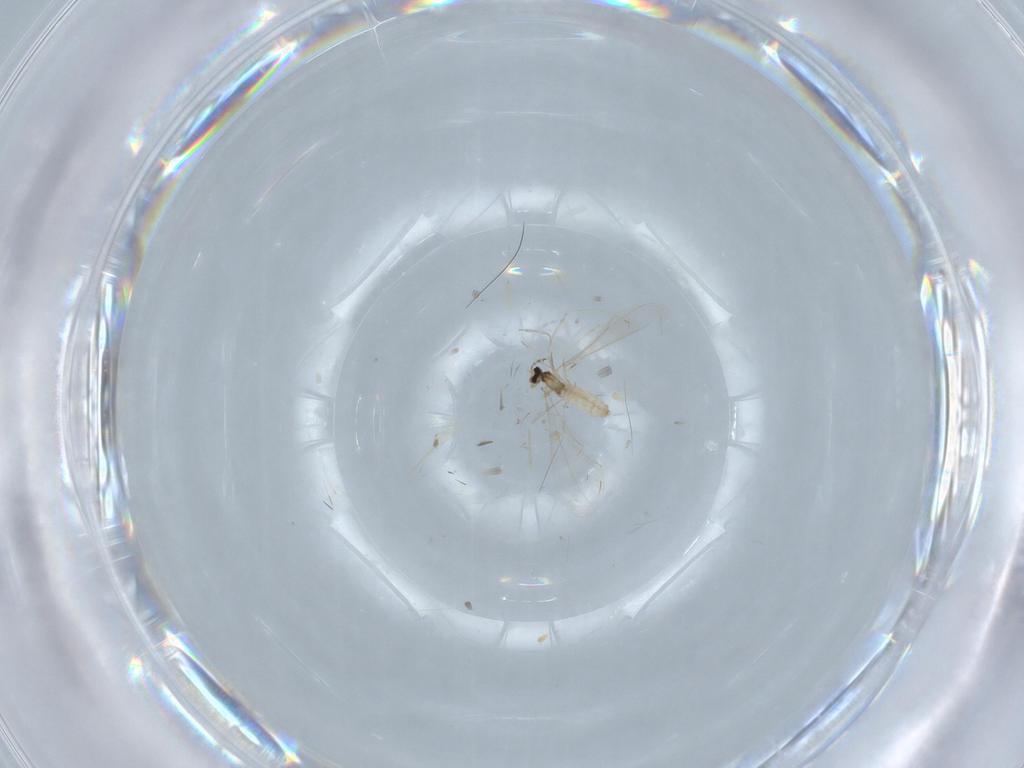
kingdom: Animalia
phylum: Arthropoda
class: Insecta
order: Diptera
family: Cecidomyiidae
